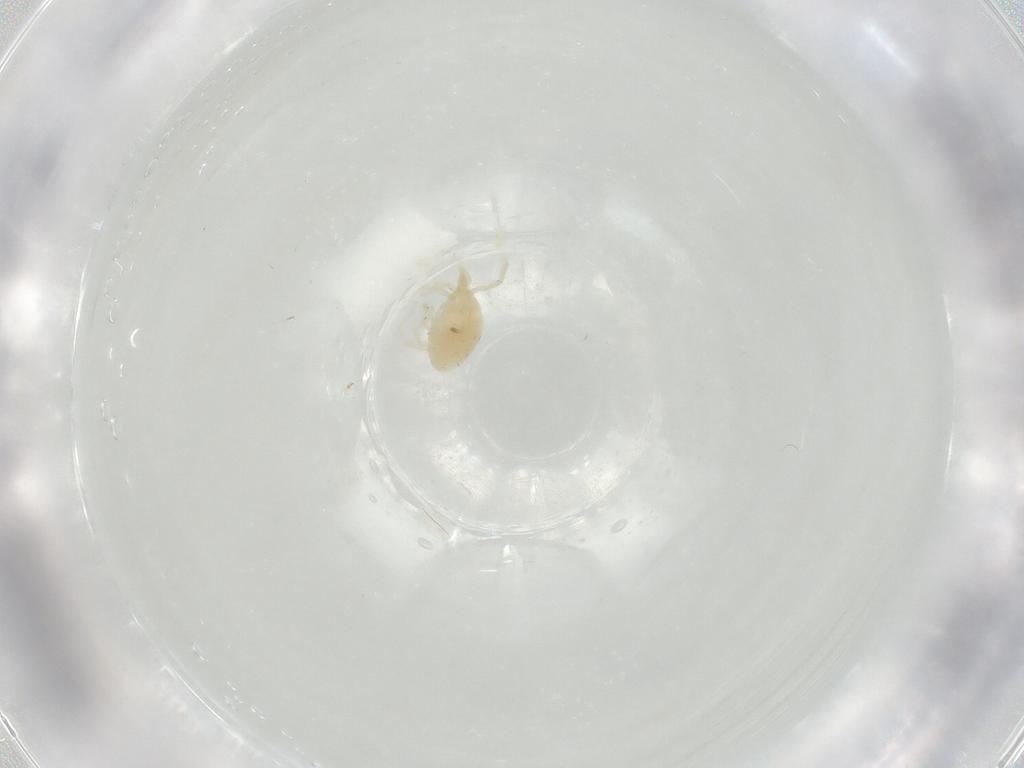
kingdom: Animalia
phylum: Arthropoda
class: Arachnida
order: Trombidiformes
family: Bdellidae
